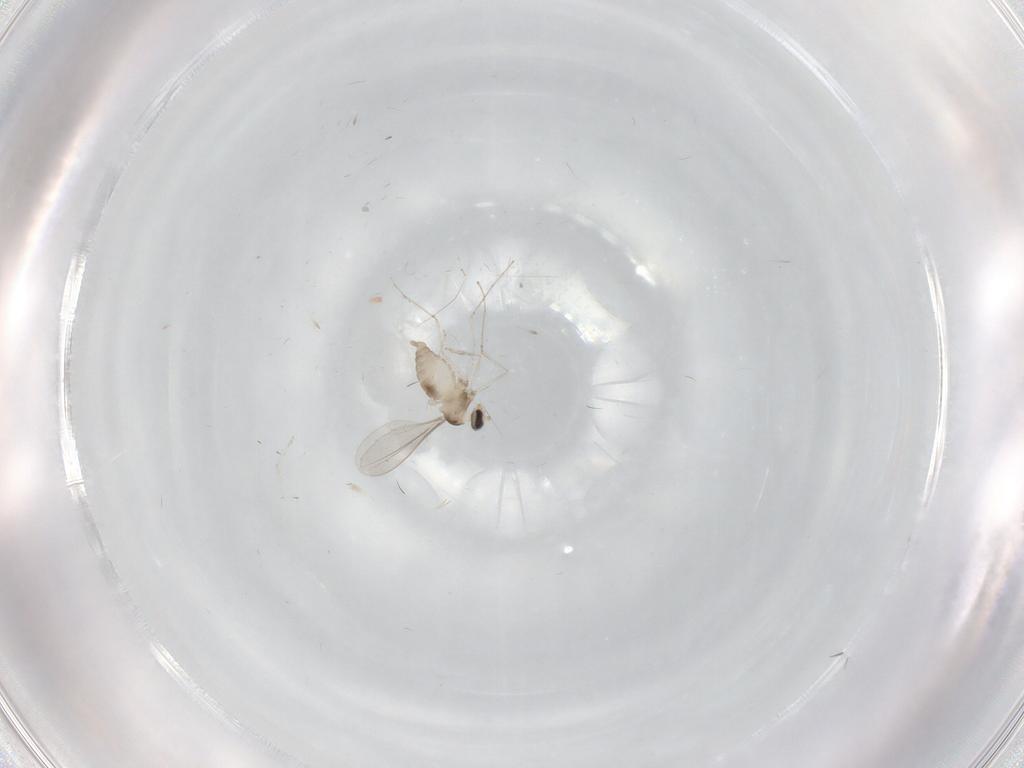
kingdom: Animalia
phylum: Arthropoda
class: Insecta
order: Diptera
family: Cecidomyiidae
